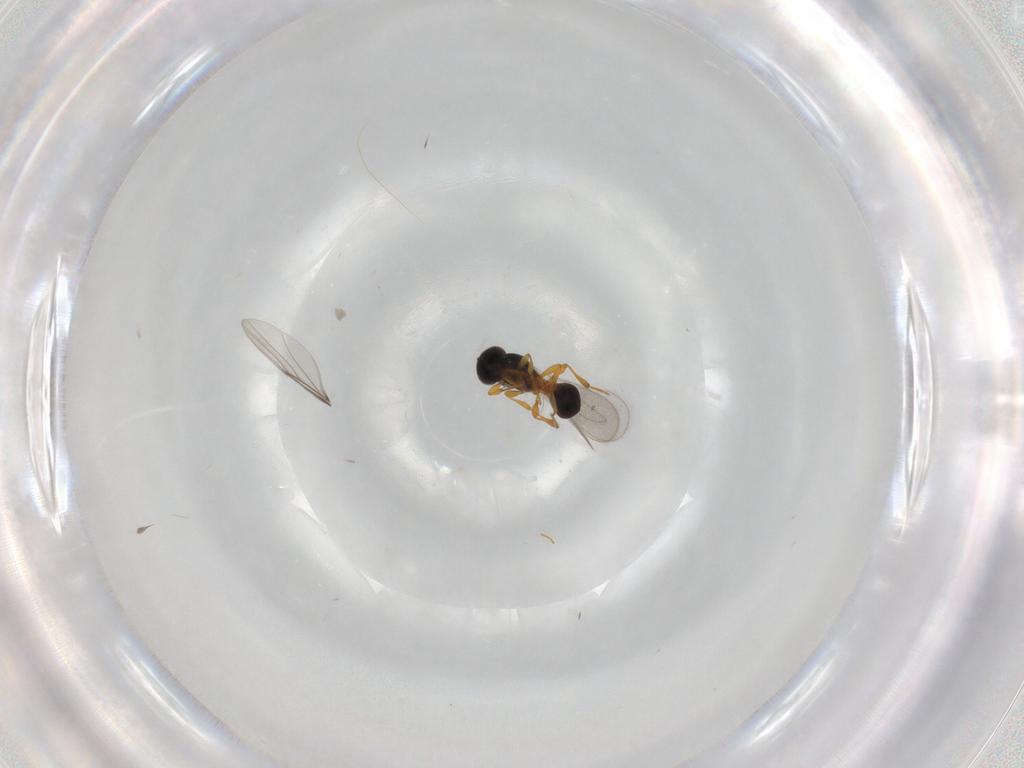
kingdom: Animalia
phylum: Arthropoda
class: Insecta
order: Hymenoptera
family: Platygastridae
